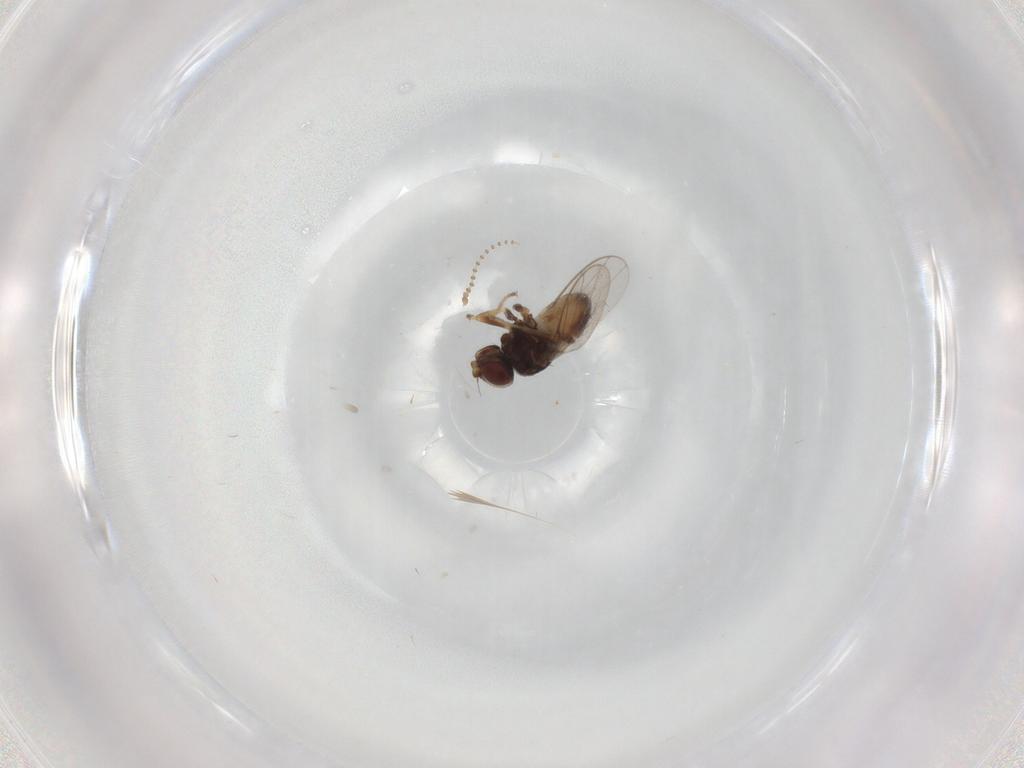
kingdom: Animalia
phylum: Arthropoda
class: Insecta
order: Diptera
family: Chloropidae
